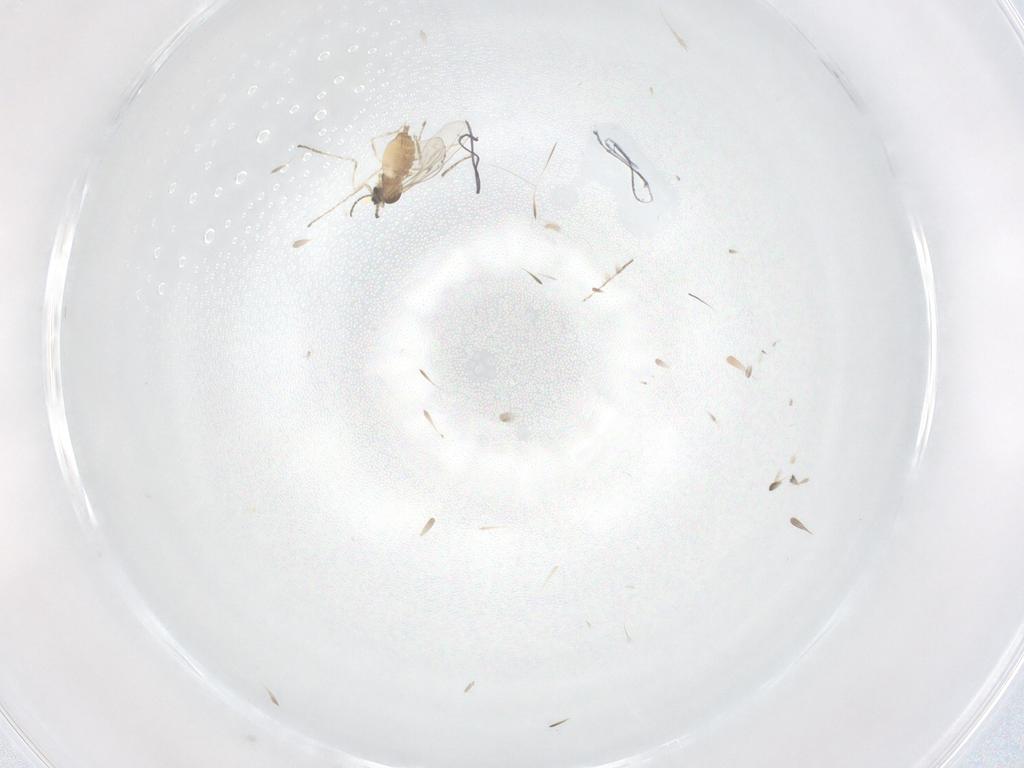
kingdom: Animalia
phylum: Arthropoda
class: Insecta
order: Diptera
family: Cecidomyiidae
